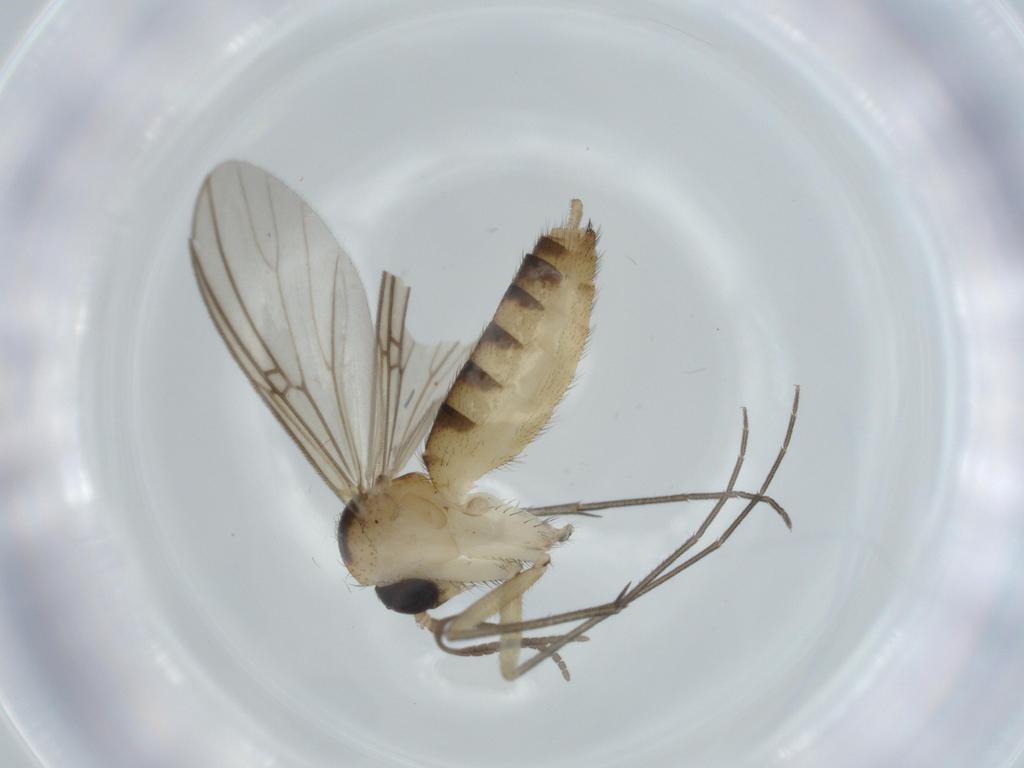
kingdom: Animalia
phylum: Arthropoda
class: Insecta
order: Diptera
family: Mycetophilidae
